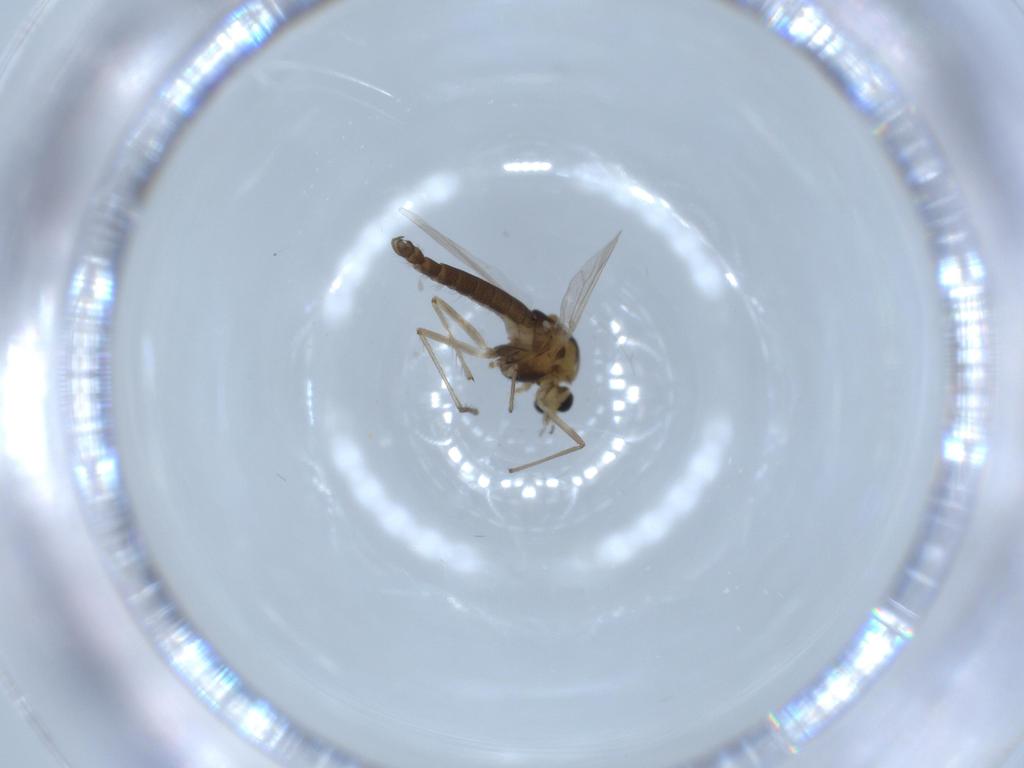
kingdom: Animalia
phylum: Arthropoda
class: Insecta
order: Diptera
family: Chironomidae
